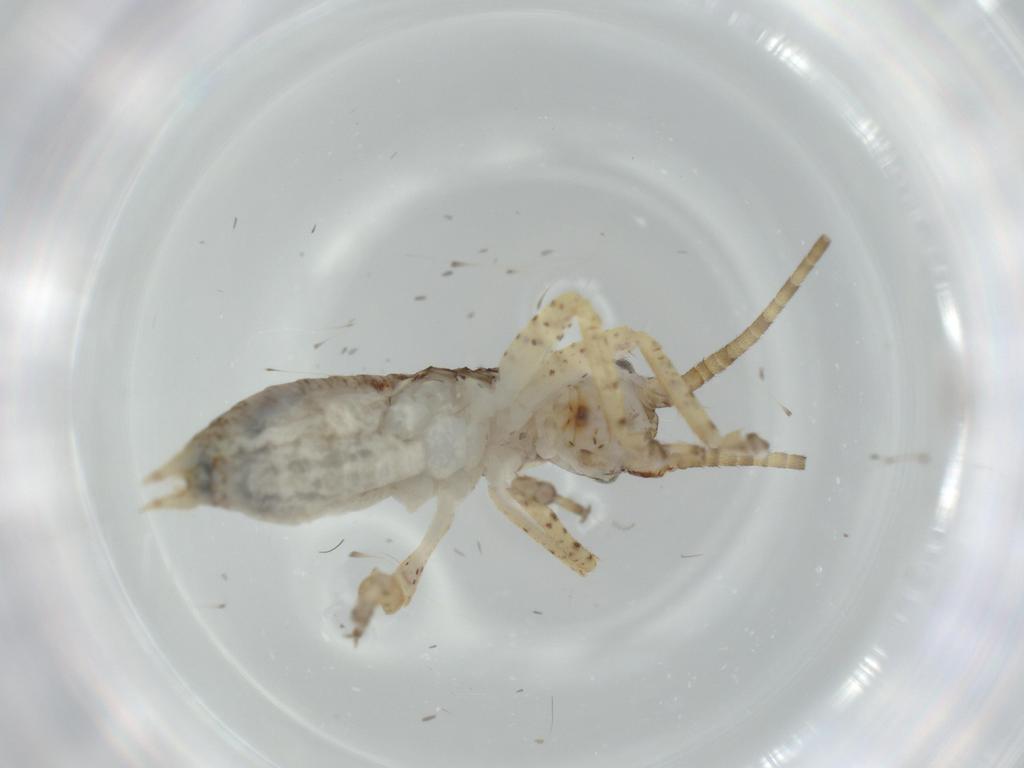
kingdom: Animalia
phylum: Arthropoda
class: Insecta
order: Orthoptera
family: Gryllidae
